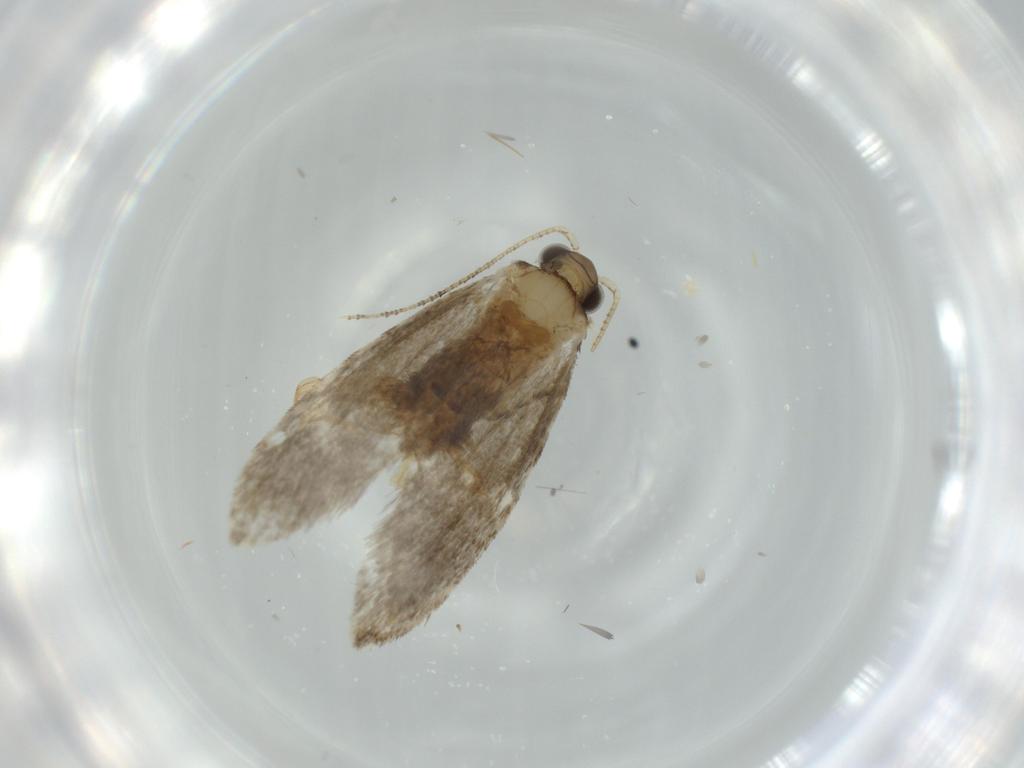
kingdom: Animalia
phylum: Arthropoda
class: Insecta
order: Lepidoptera
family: Tineidae
